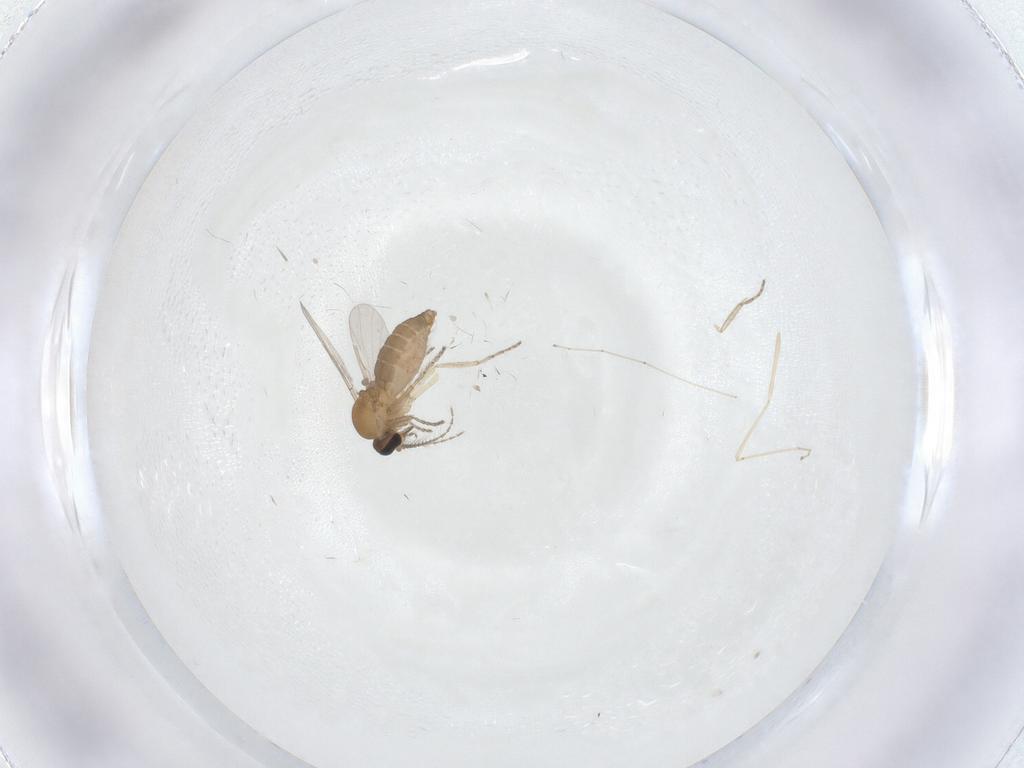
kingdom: Animalia
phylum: Arthropoda
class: Insecta
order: Diptera
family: Ceratopogonidae
